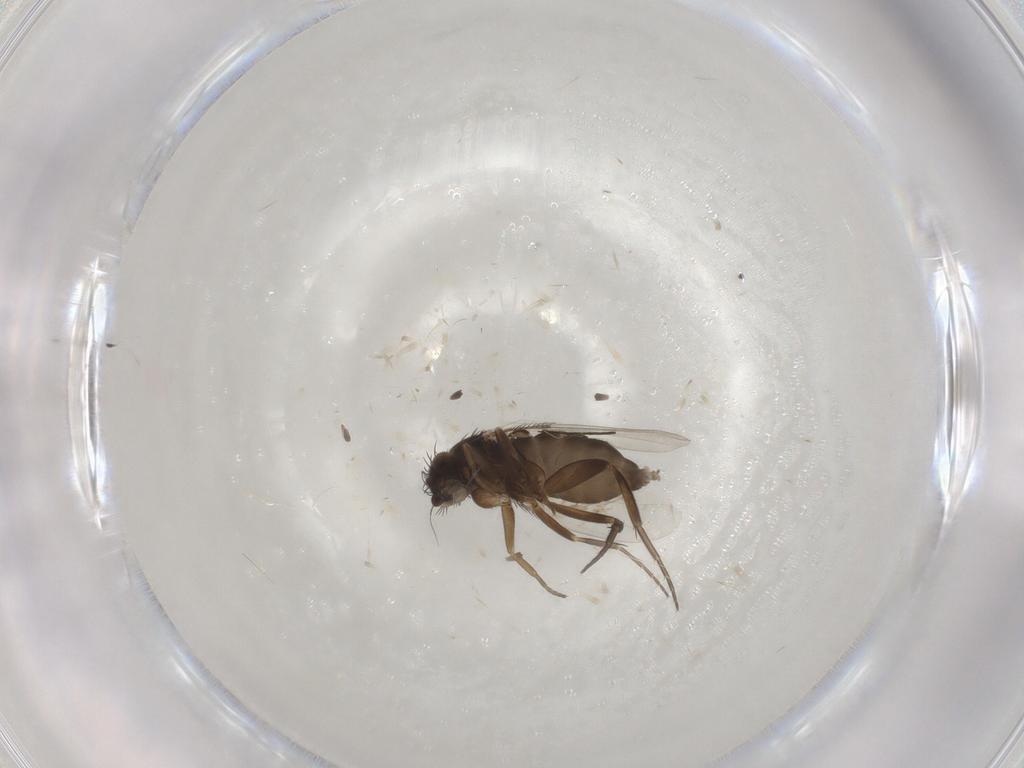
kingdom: Animalia
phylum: Arthropoda
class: Insecta
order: Diptera
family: Phoridae
